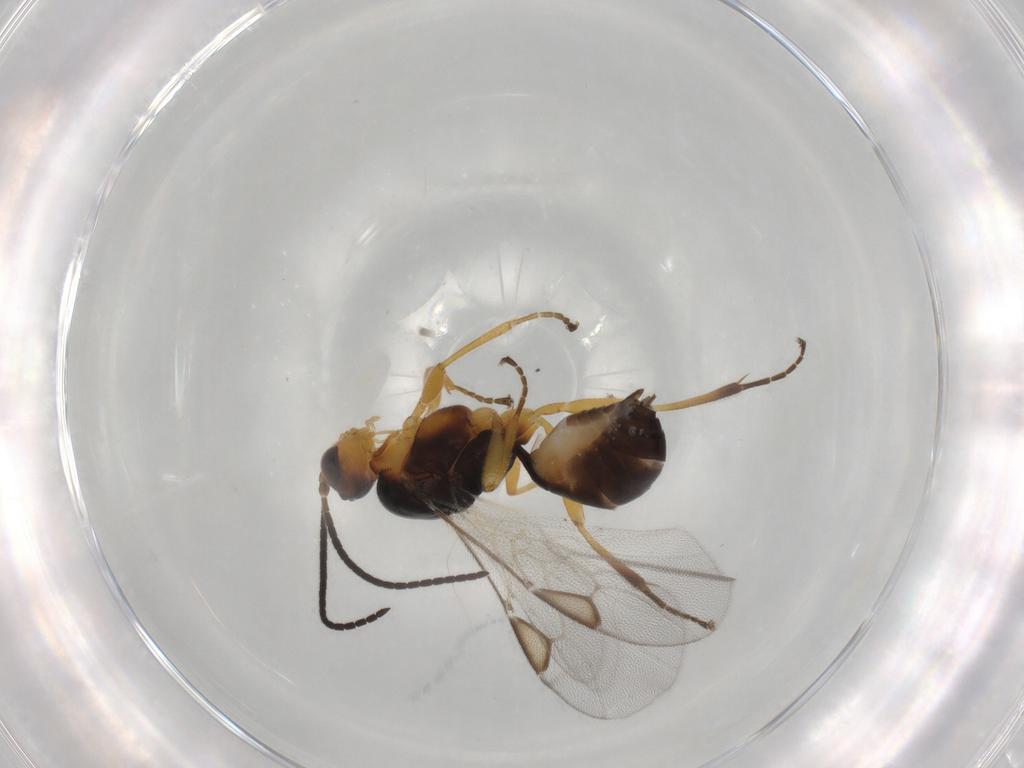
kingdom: Animalia
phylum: Arthropoda
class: Insecta
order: Hymenoptera
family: Braconidae
